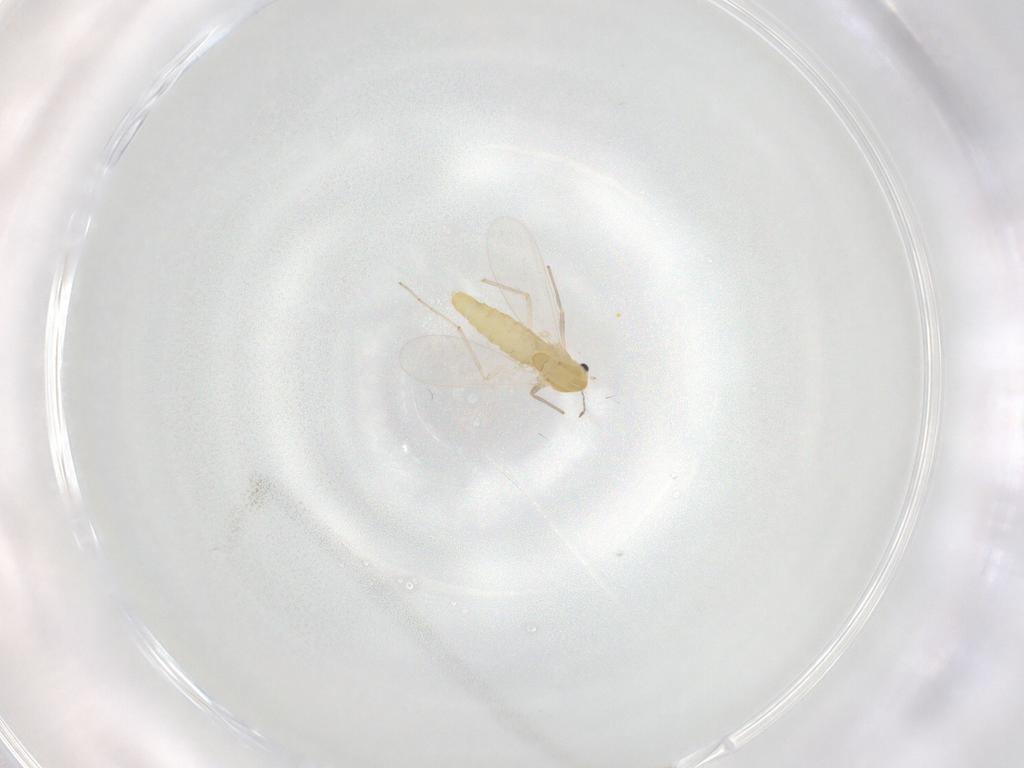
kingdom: Animalia
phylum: Arthropoda
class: Insecta
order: Diptera
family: Chironomidae
